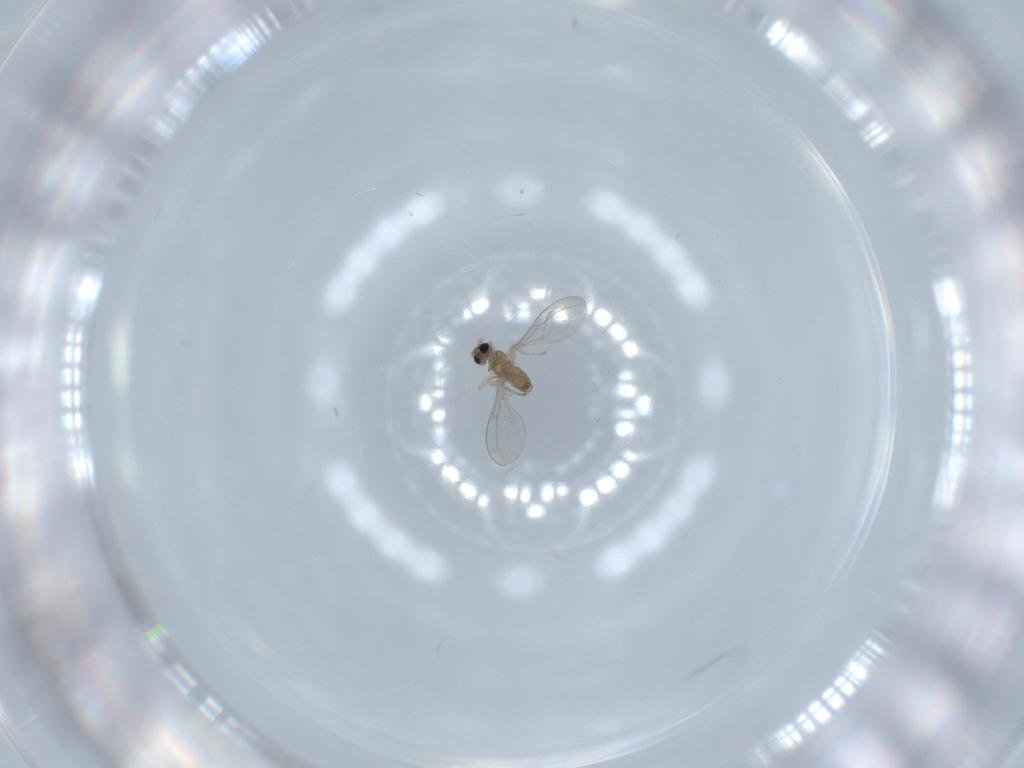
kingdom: Animalia
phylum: Arthropoda
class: Insecta
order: Diptera
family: Cecidomyiidae
